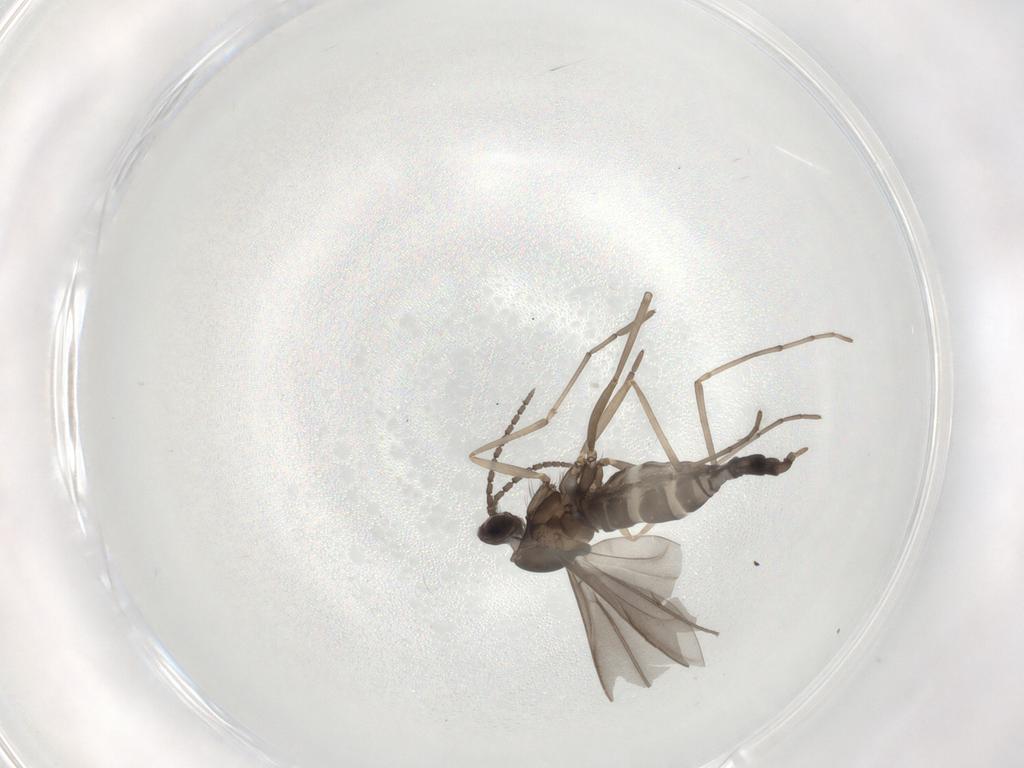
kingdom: Animalia
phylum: Arthropoda
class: Insecta
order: Diptera
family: Cecidomyiidae
